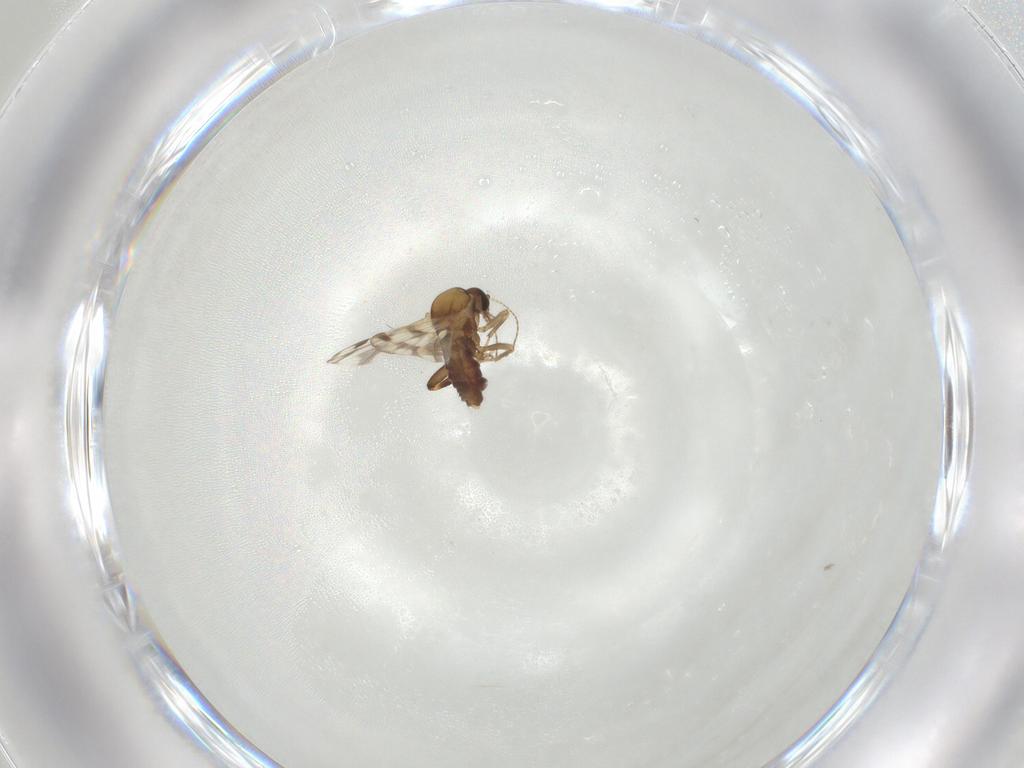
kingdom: Animalia
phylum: Arthropoda
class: Insecta
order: Diptera
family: Ceratopogonidae
